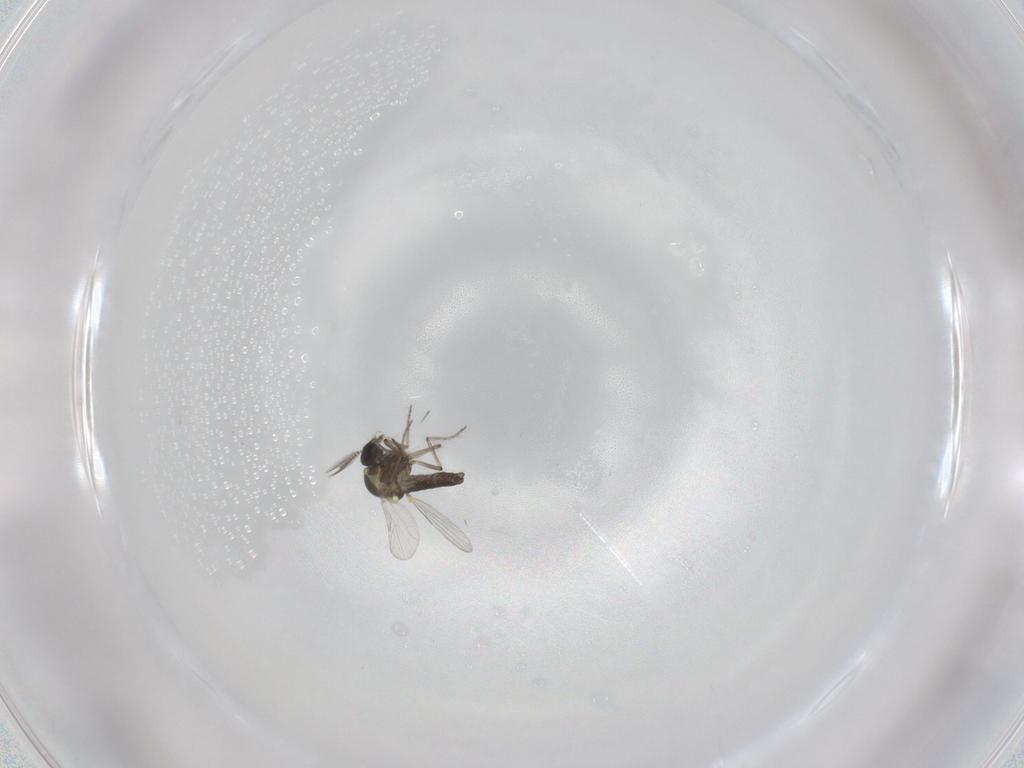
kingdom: Animalia
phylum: Arthropoda
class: Insecta
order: Diptera
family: Ceratopogonidae
